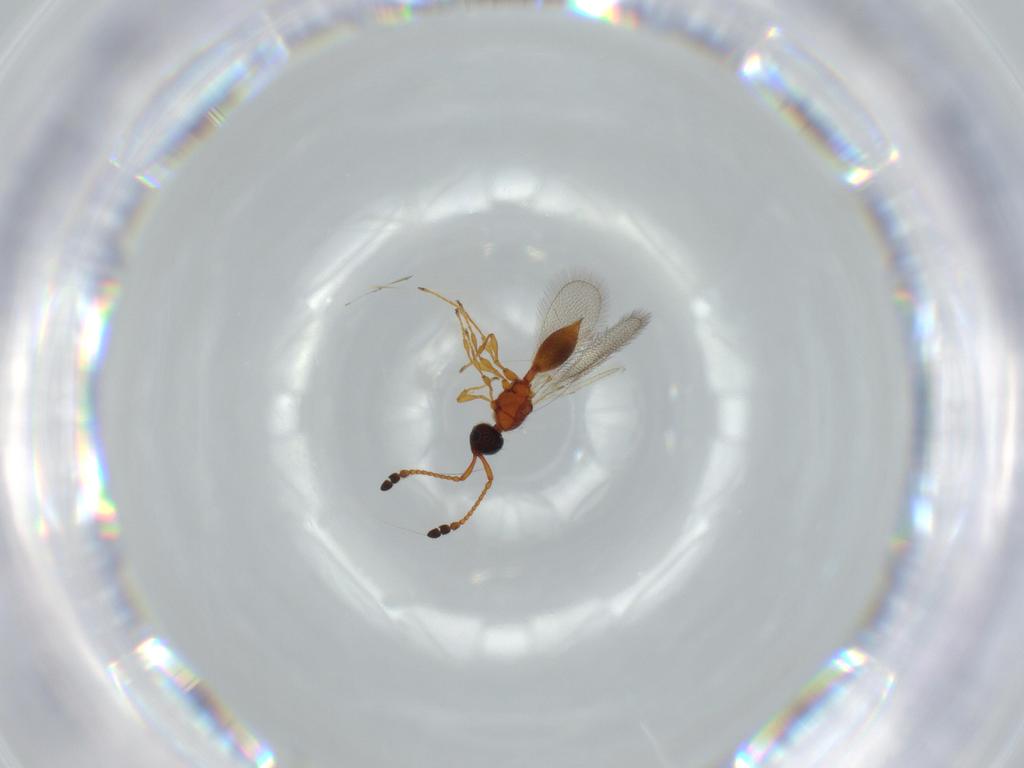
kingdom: Animalia
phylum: Arthropoda
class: Insecta
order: Hymenoptera
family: Diapriidae
